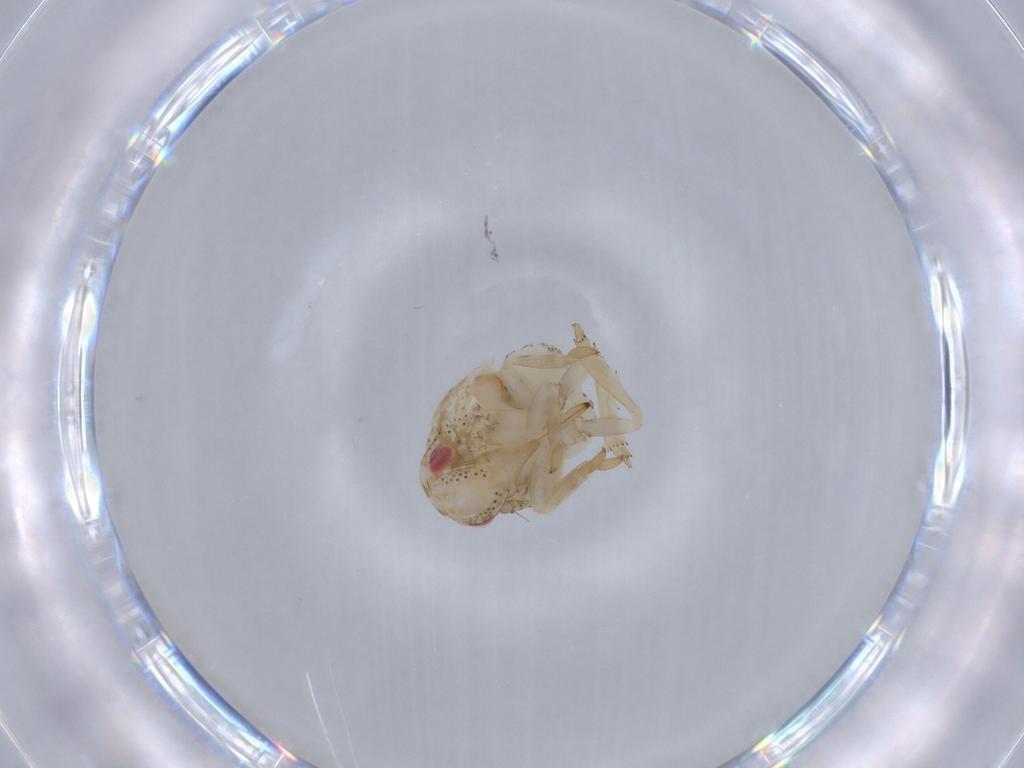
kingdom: Animalia
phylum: Arthropoda
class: Insecta
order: Hemiptera
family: Acanaloniidae
